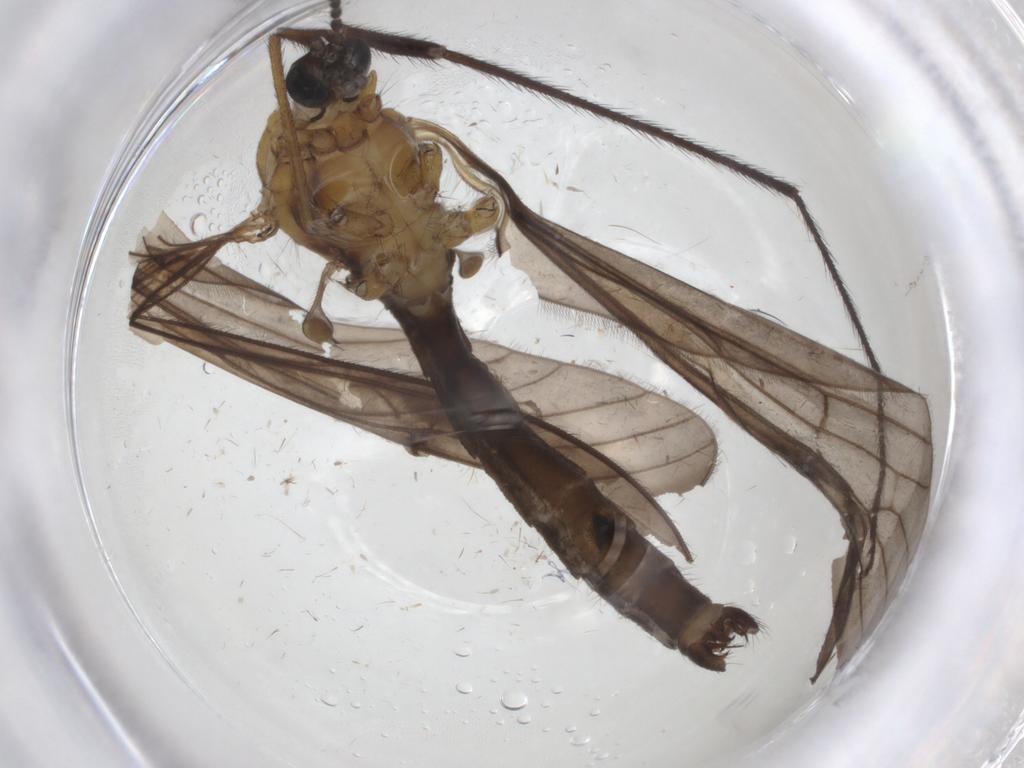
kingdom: Animalia
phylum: Arthropoda
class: Insecta
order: Diptera
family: Limoniidae
